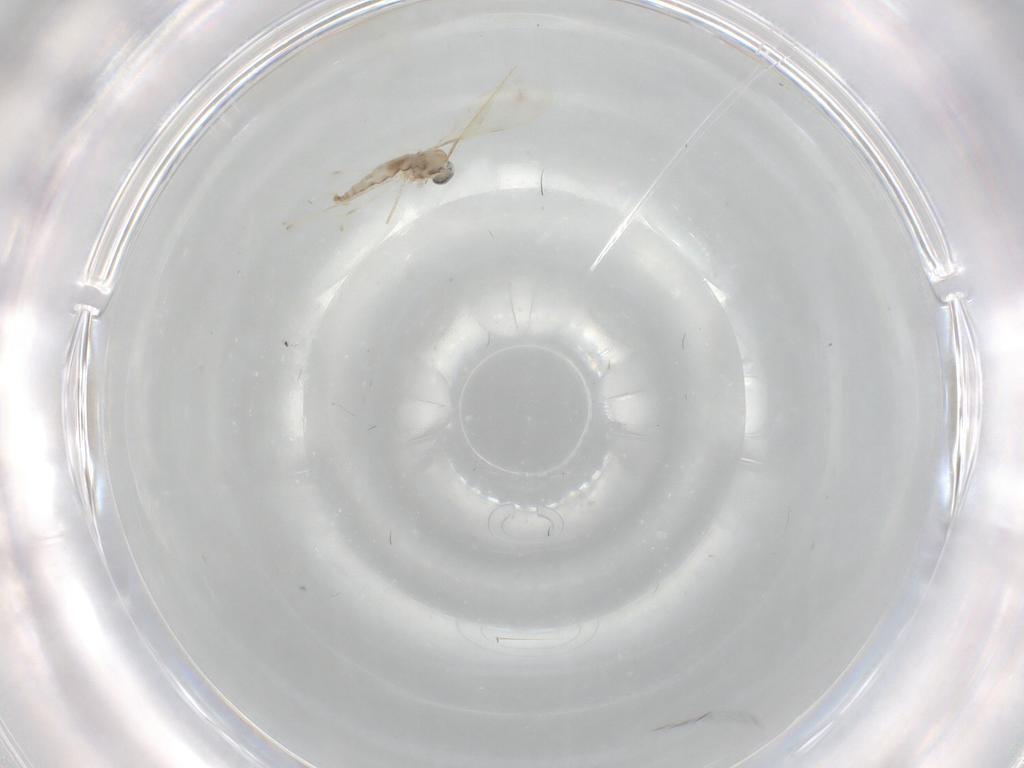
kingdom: Animalia
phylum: Arthropoda
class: Insecta
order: Diptera
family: Cecidomyiidae
